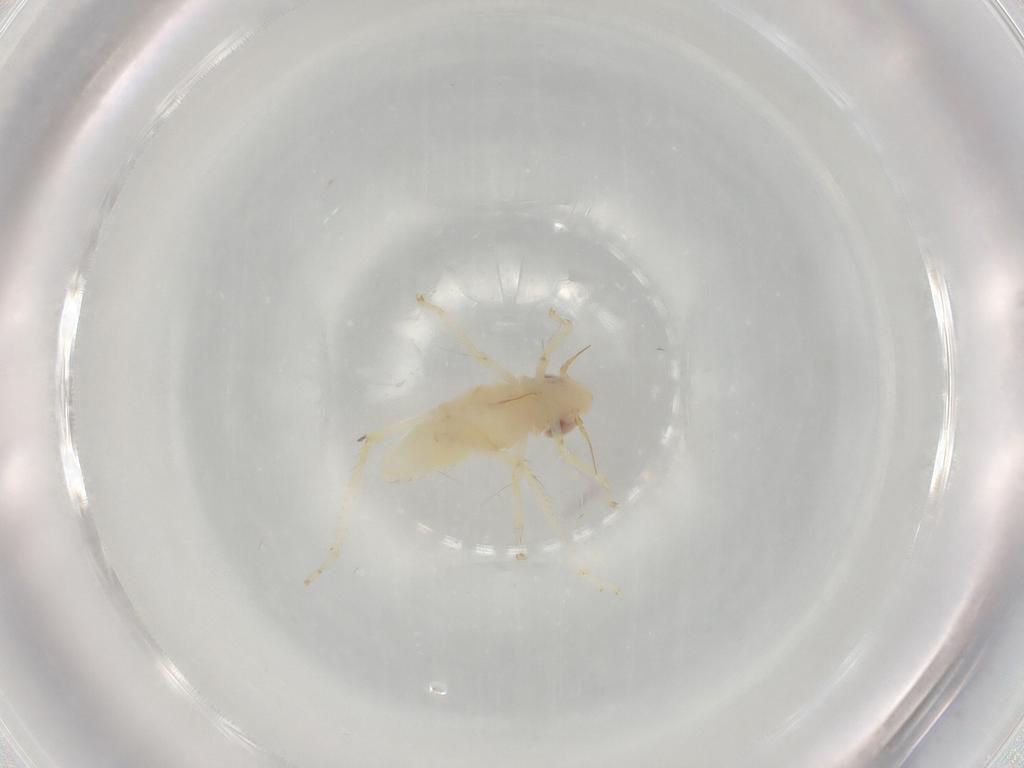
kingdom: Animalia
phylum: Arthropoda
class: Insecta
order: Hemiptera
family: Cicadellidae
